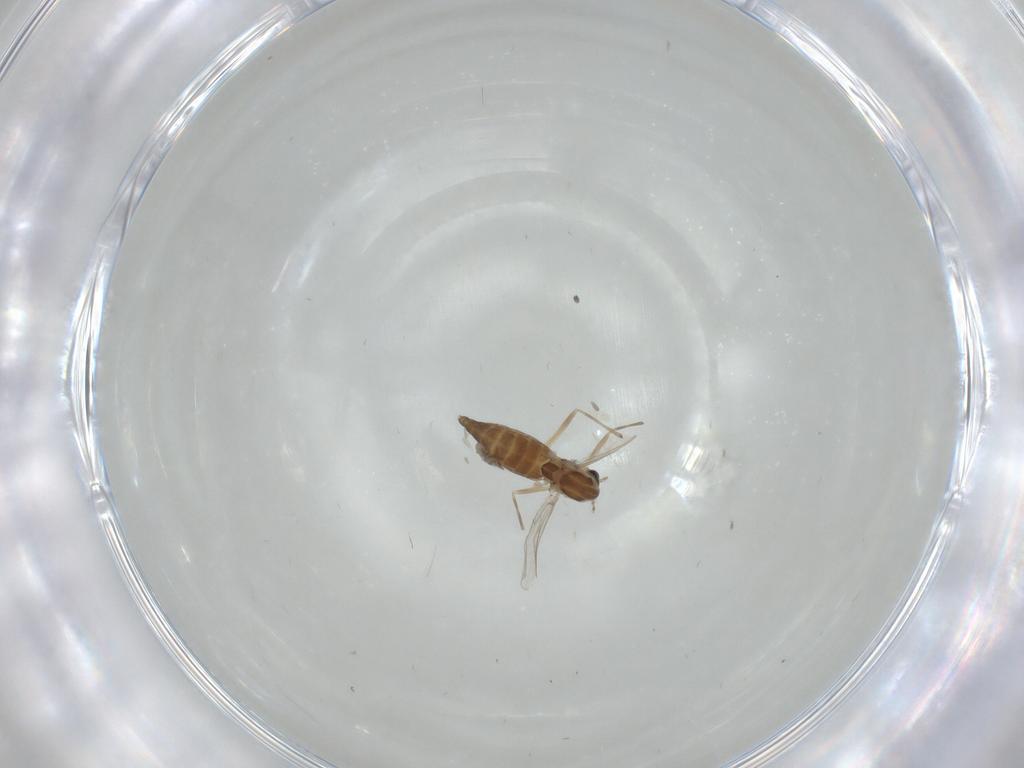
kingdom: Animalia
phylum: Arthropoda
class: Insecta
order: Diptera
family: Chironomidae
